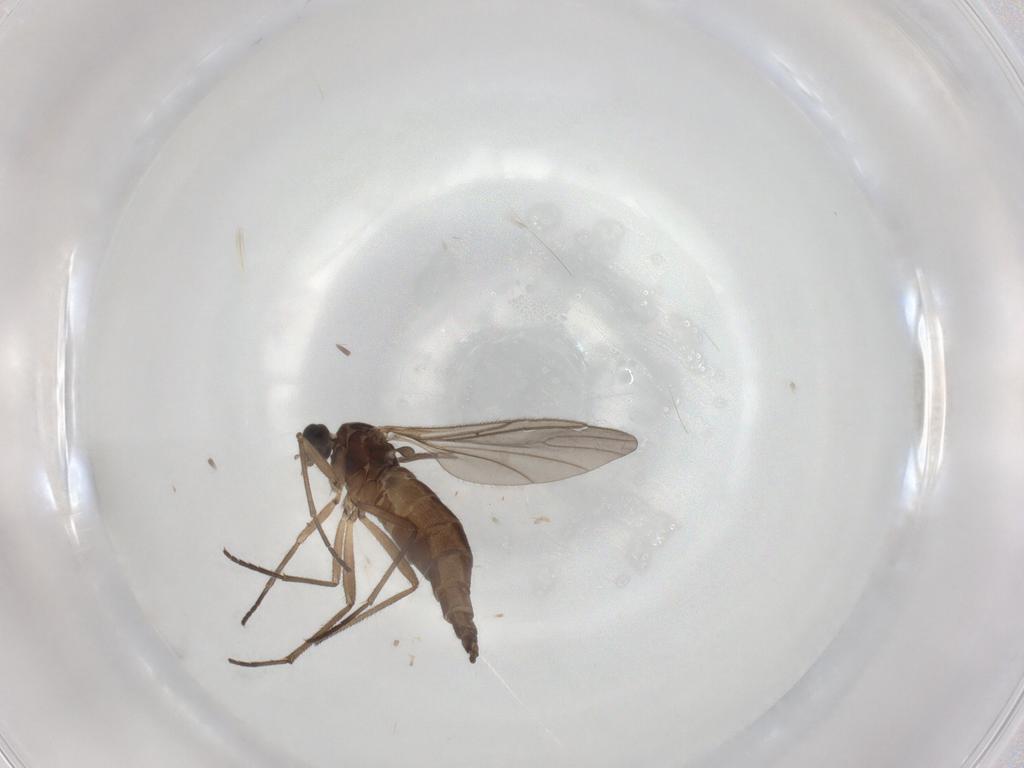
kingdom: Animalia
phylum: Arthropoda
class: Insecta
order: Diptera
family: Sciaridae
